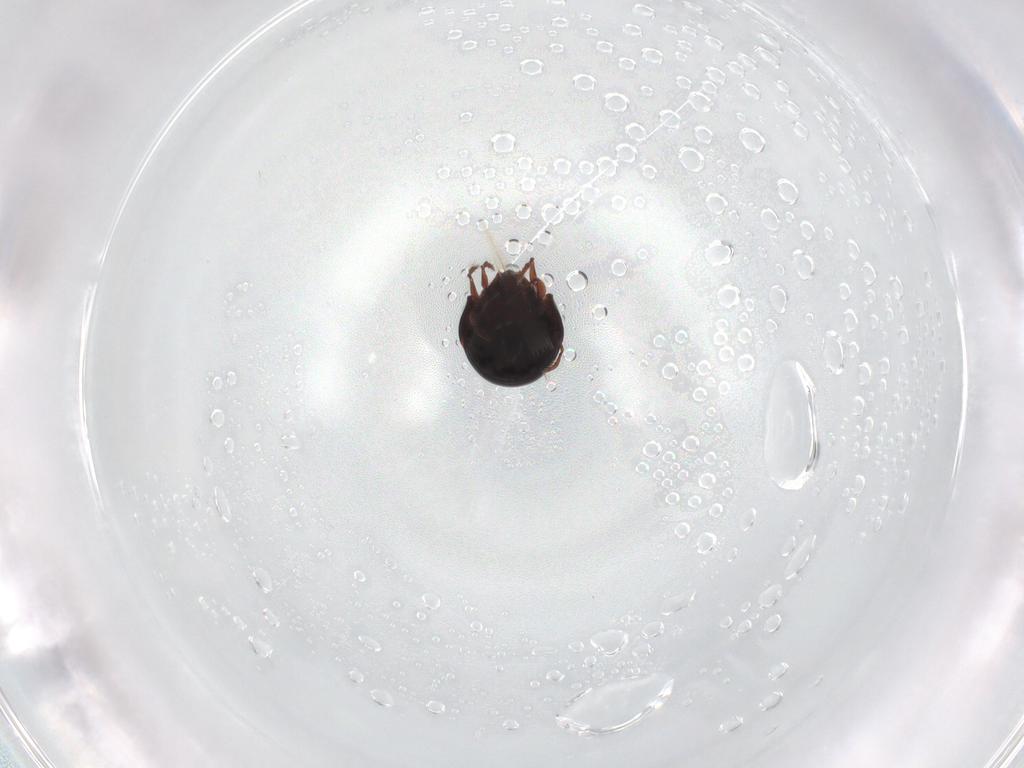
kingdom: Animalia
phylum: Arthropoda
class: Arachnida
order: Sarcoptiformes
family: Mochlozetidae
